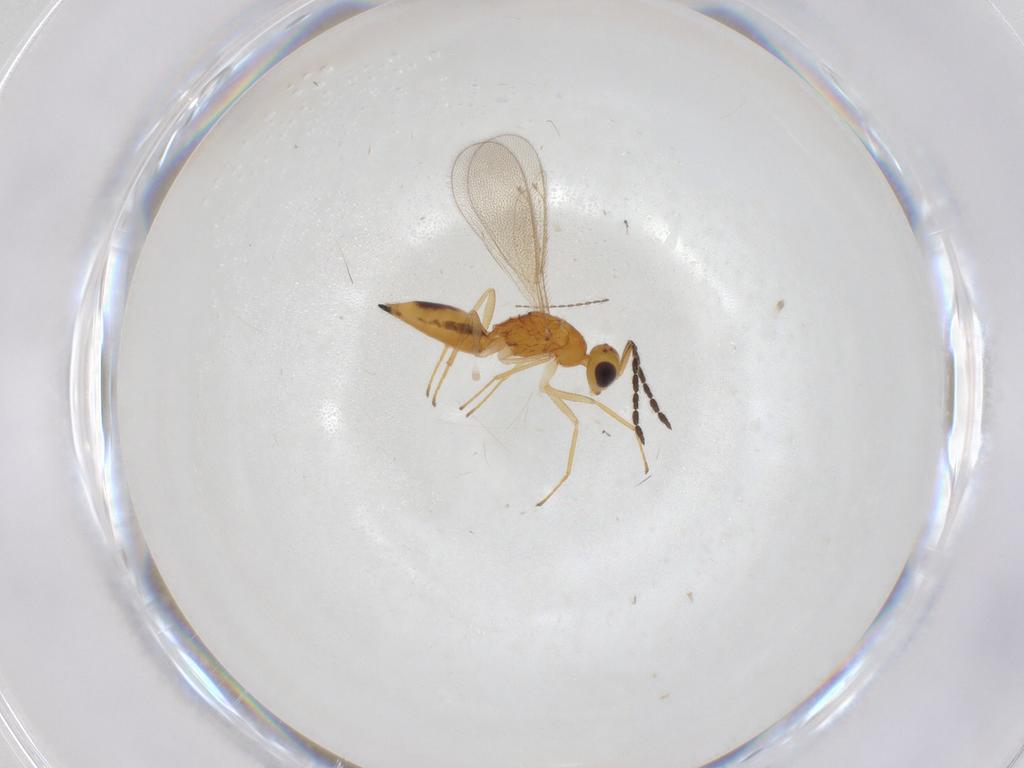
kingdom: Animalia
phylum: Arthropoda
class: Insecta
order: Hymenoptera
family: Eulophidae
